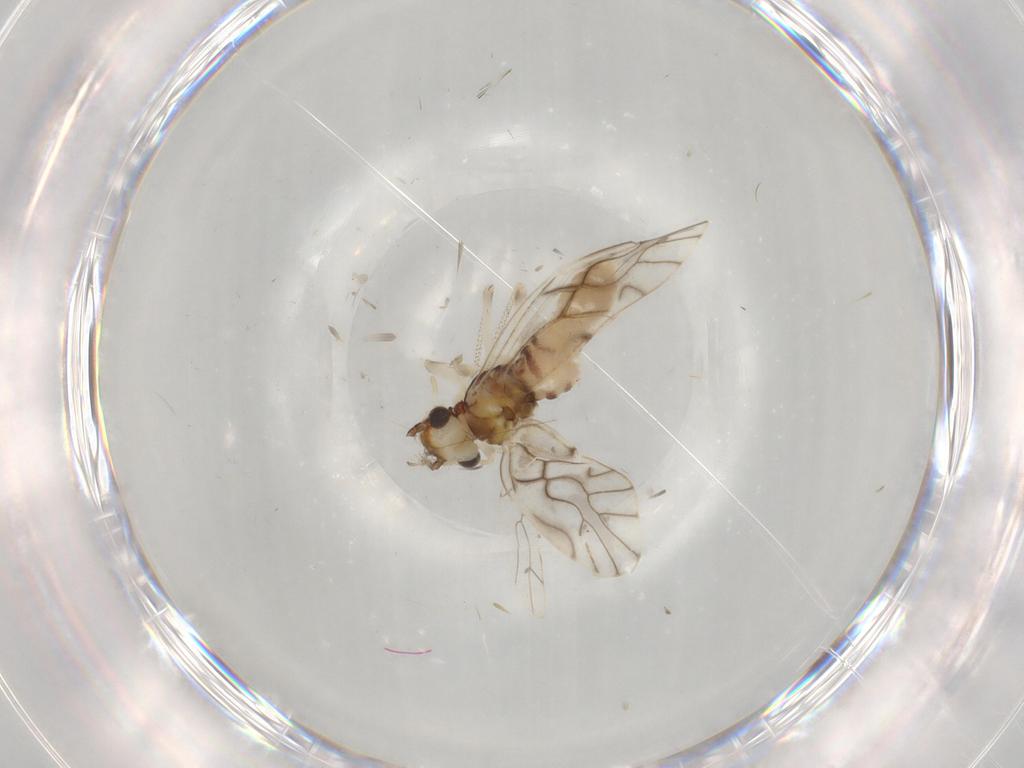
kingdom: Animalia
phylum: Arthropoda
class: Insecta
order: Psocodea
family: Caeciliusidae
